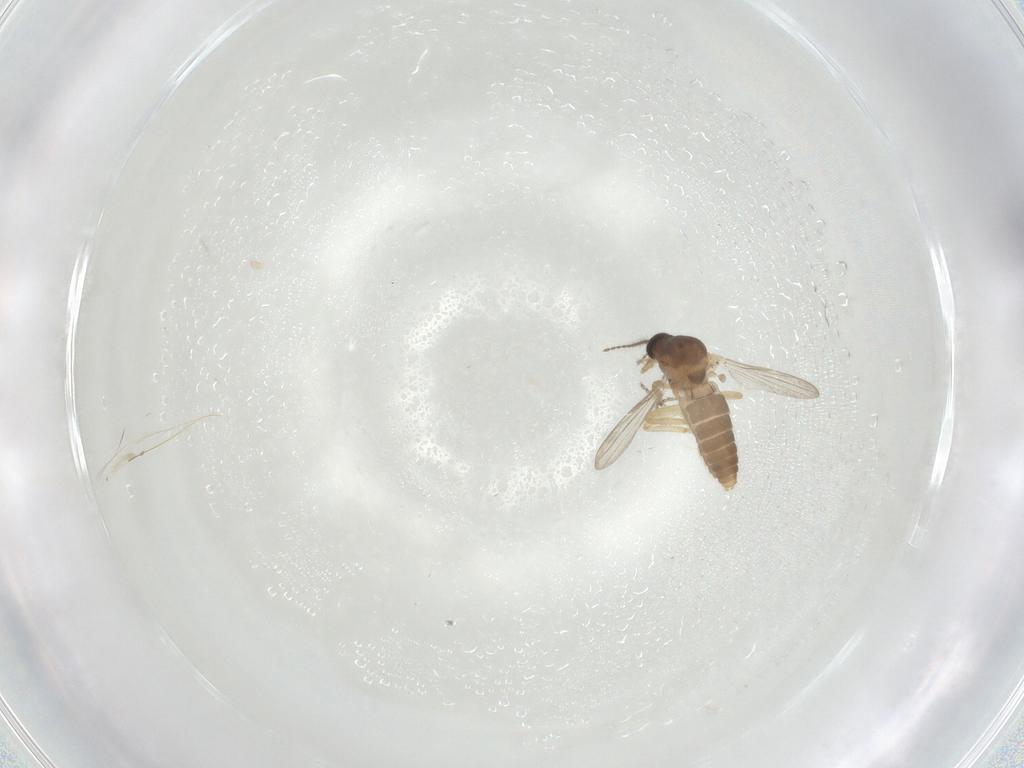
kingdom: Animalia
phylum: Arthropoda
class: Insecta
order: Diptera
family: Ceratopogonidae
